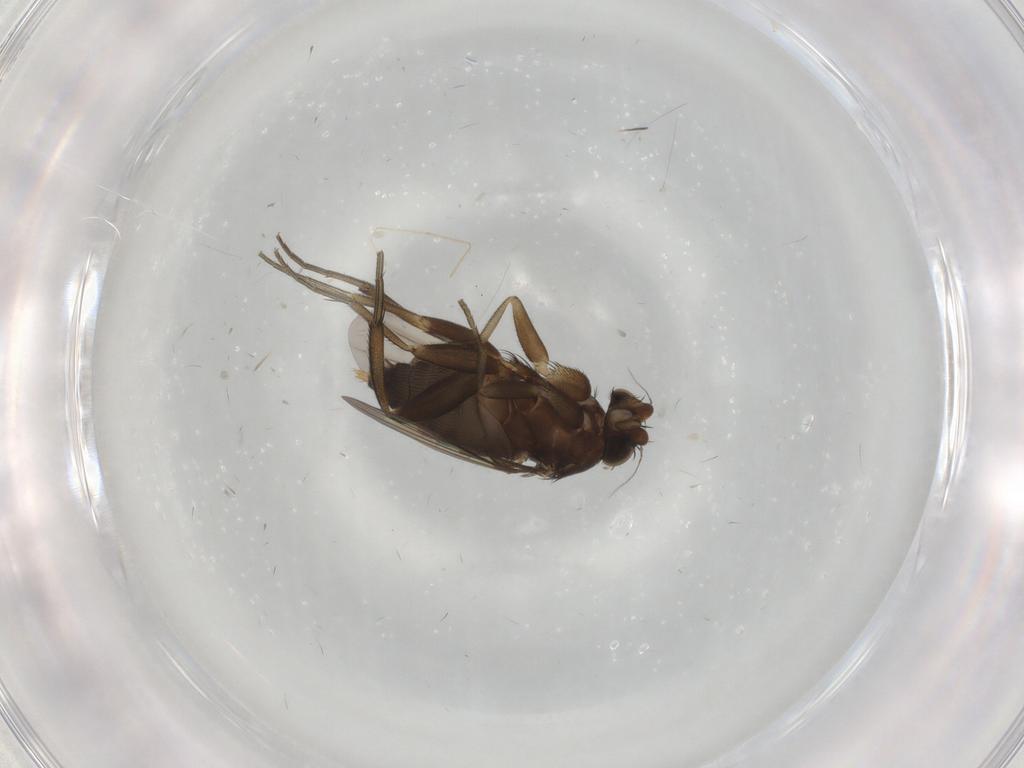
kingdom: Animalia
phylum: Arthropoda
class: Insecta
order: Diptera
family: Phoridae
